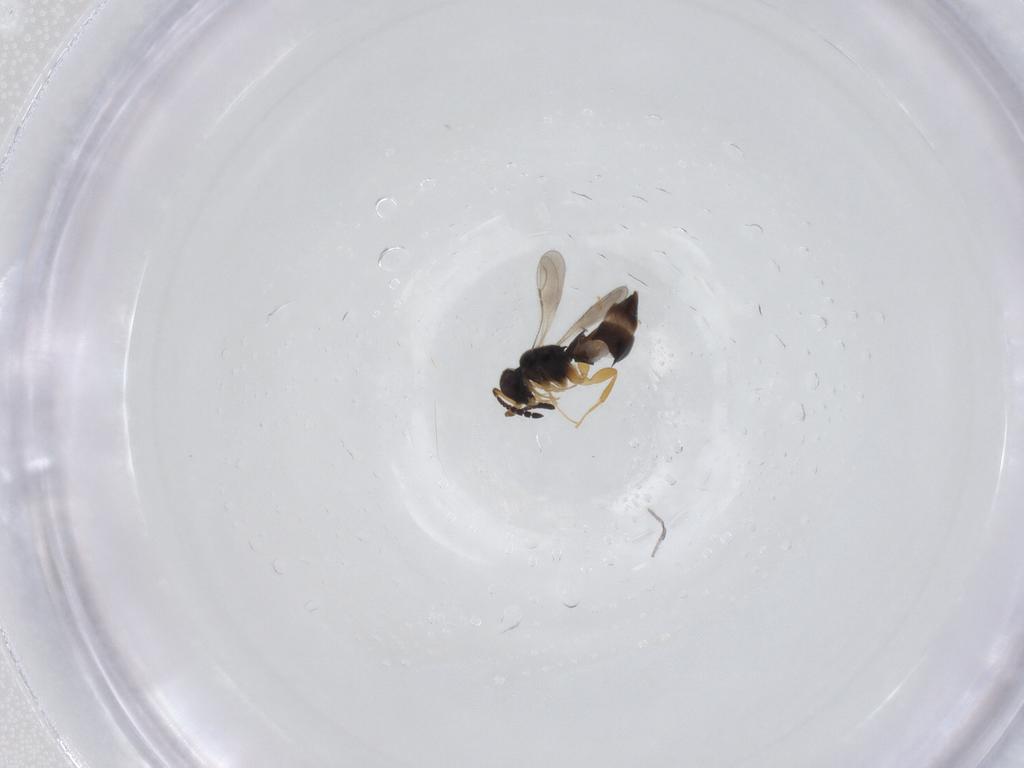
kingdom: Animalia
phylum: Arthropoda
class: Insecta
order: Hymenoptera
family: Scelionidae
